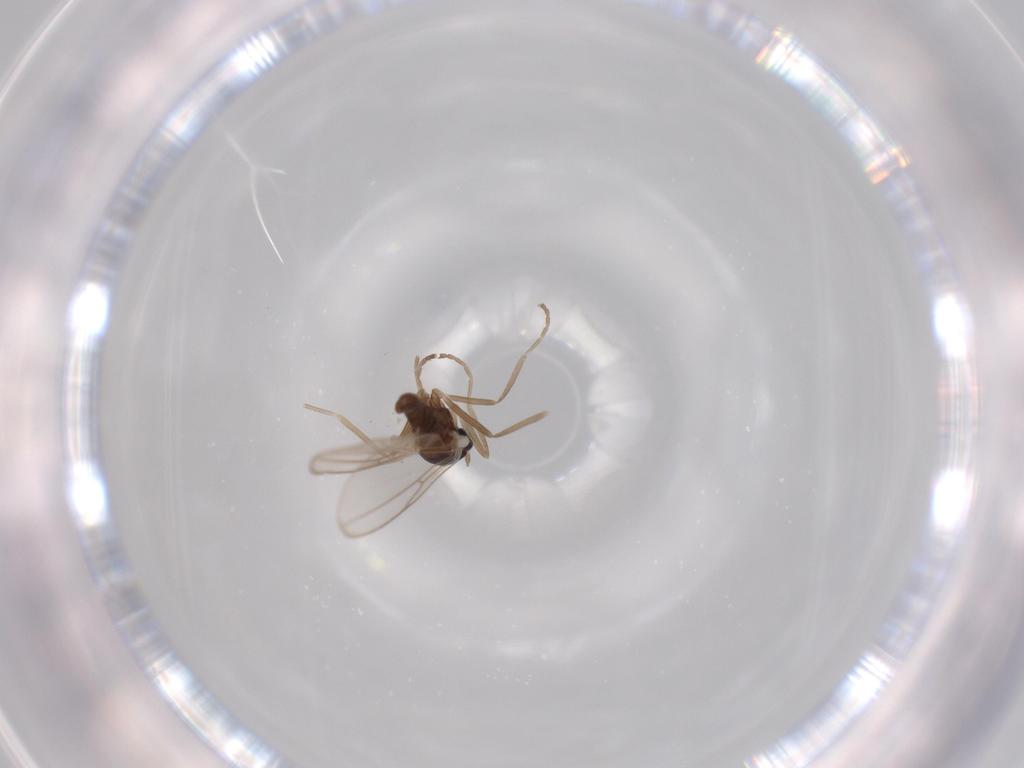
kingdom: Animalia
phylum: Arthropoda
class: Insecta
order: Diptera
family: Cecidomyiidae
